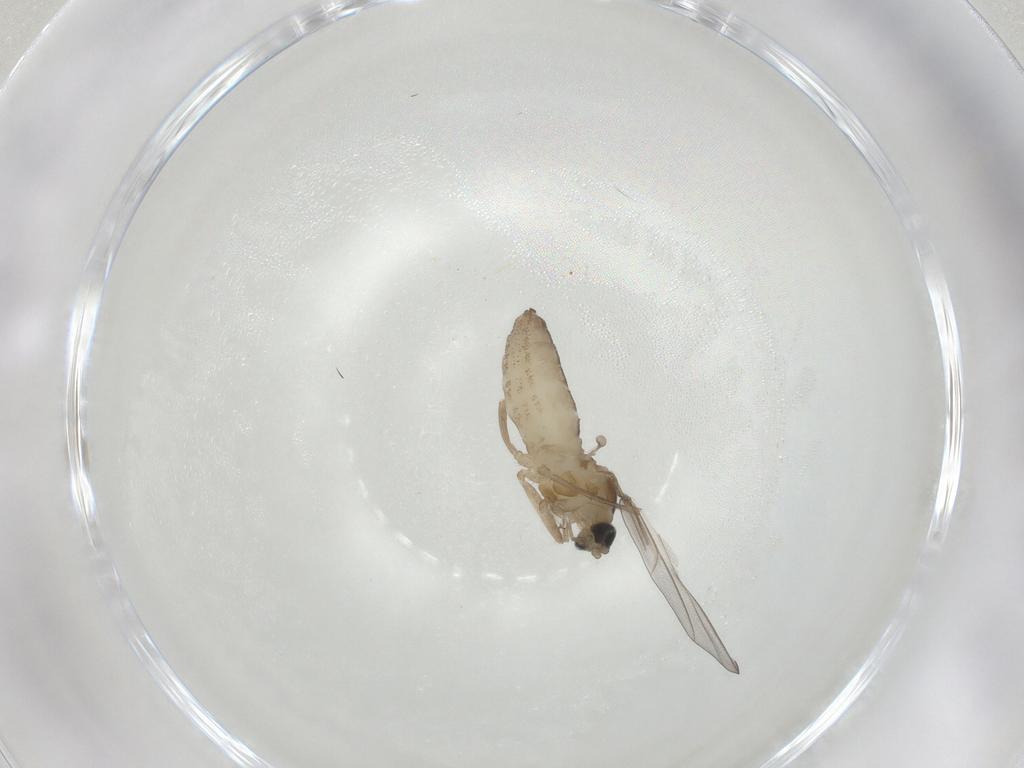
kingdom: Animalia
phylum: Arthropoda
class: Insecta
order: Diptera
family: Cecidomyiidae
